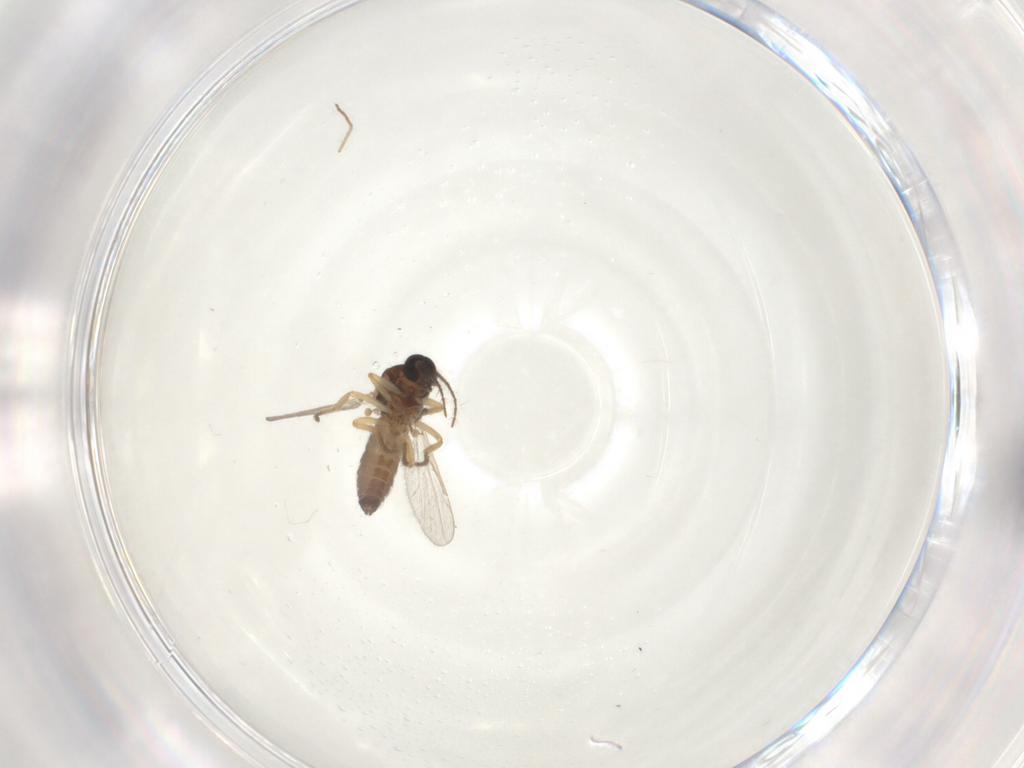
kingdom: Animalia
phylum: Arthropoda
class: Insecta
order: Diptera
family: Ceratopogonidae
